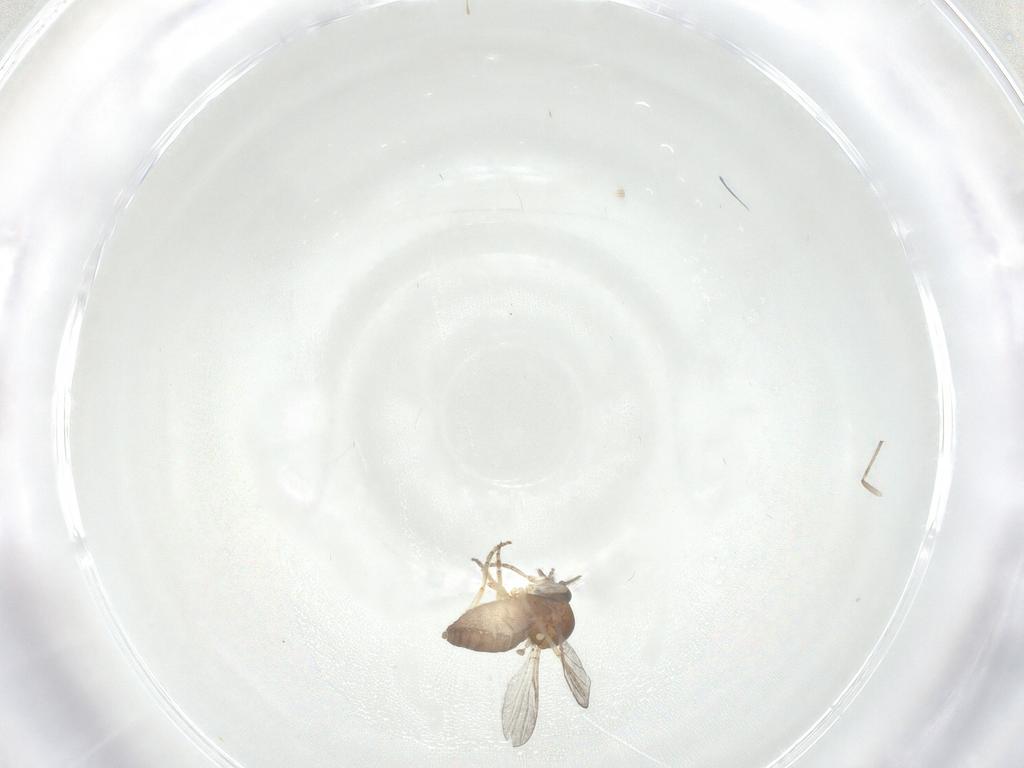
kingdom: Animalia
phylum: Arthropoda
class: Insecta
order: Diptera
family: Ceratopogonidae
